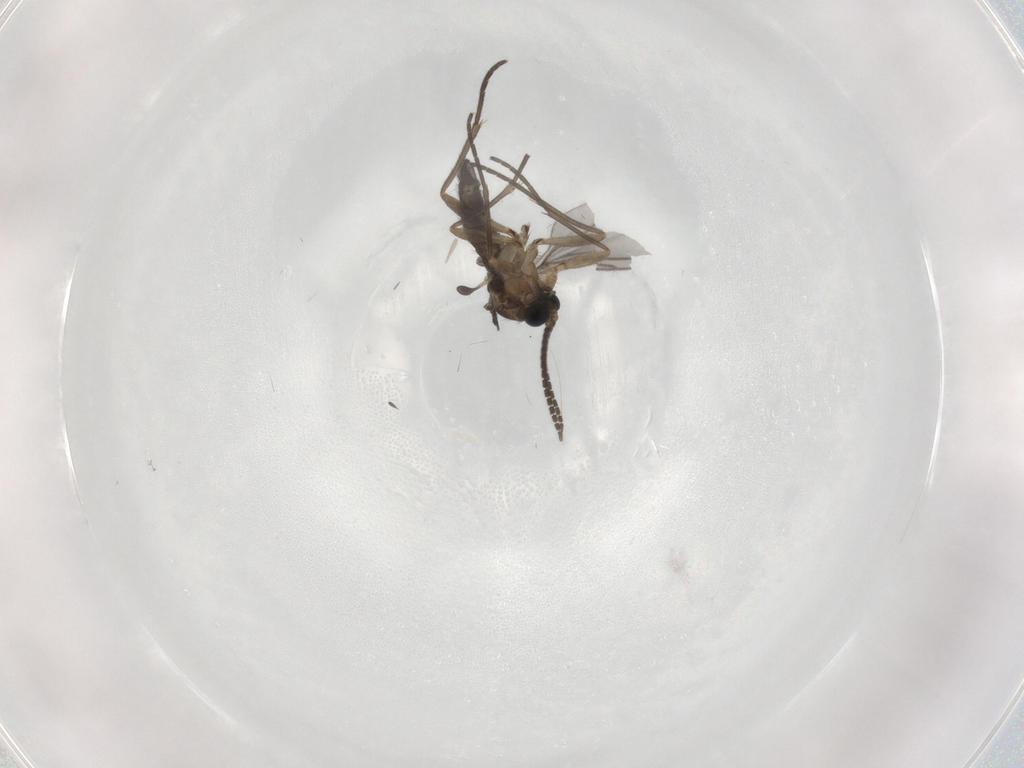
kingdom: Animalia
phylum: Arthropoda
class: Insecta
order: Diptera
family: Sciaridae
